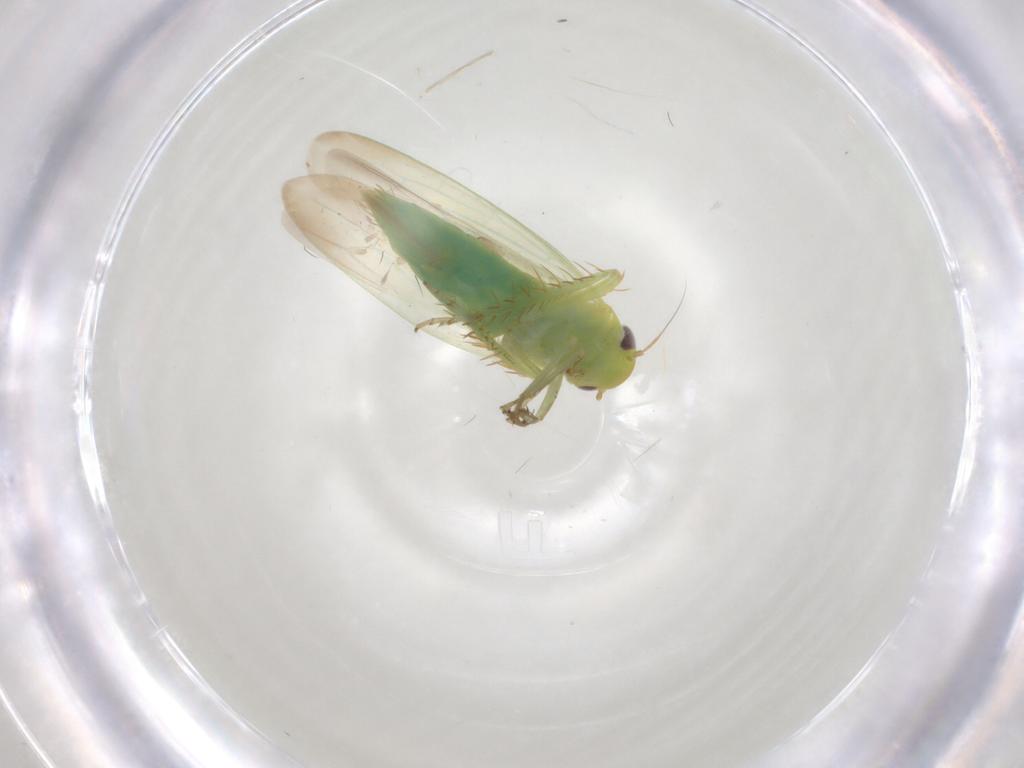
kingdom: Animalia
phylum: Arthropoda
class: Insecta
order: Hemiptera
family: Cicadellidae
